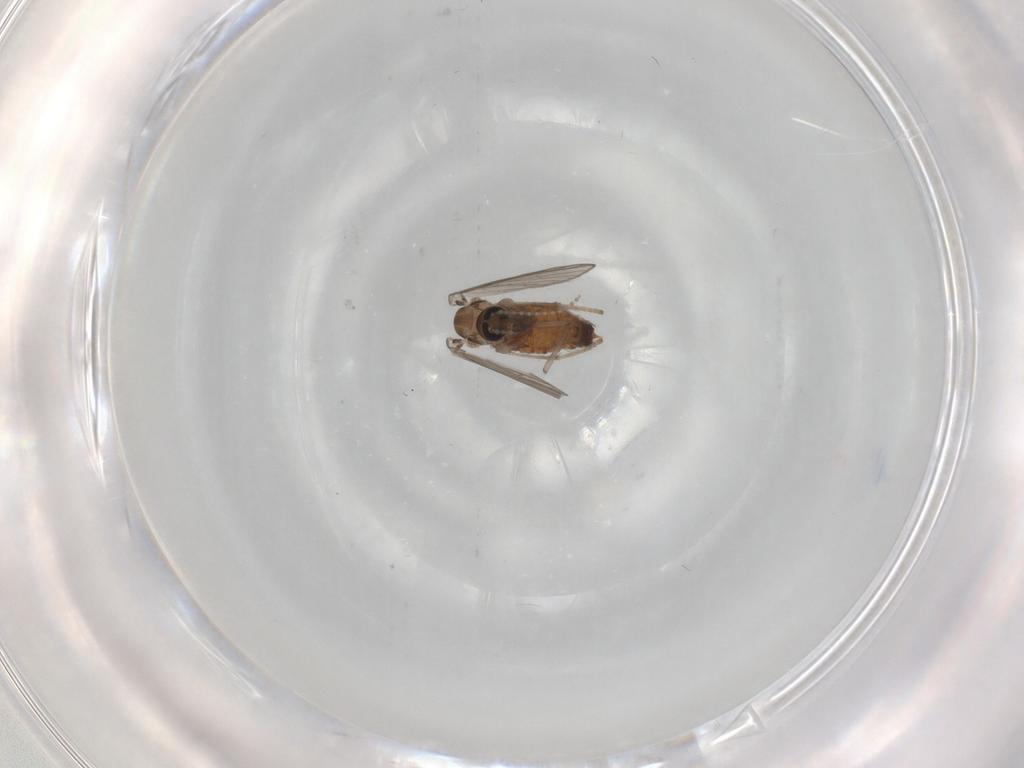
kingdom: Animalia
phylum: Arthropoda
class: Insecta
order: Diptera
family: Psychodidae
